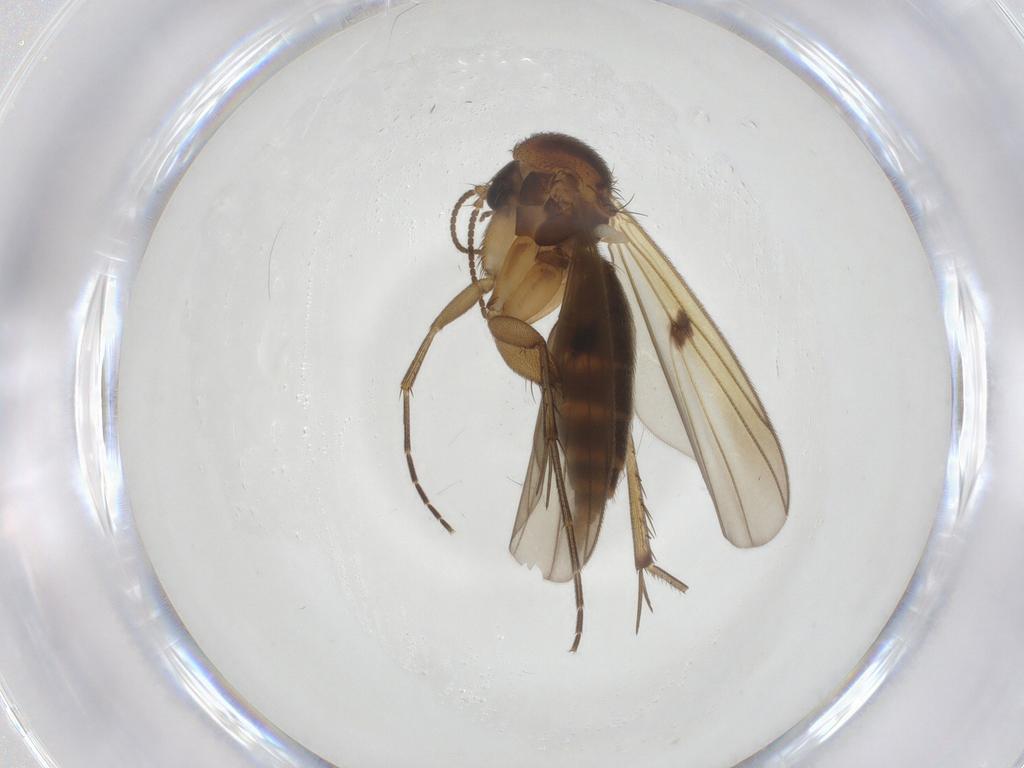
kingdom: Animalia
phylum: Arthropoda
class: Insecta
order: Diptera
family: Mycetophilidae
